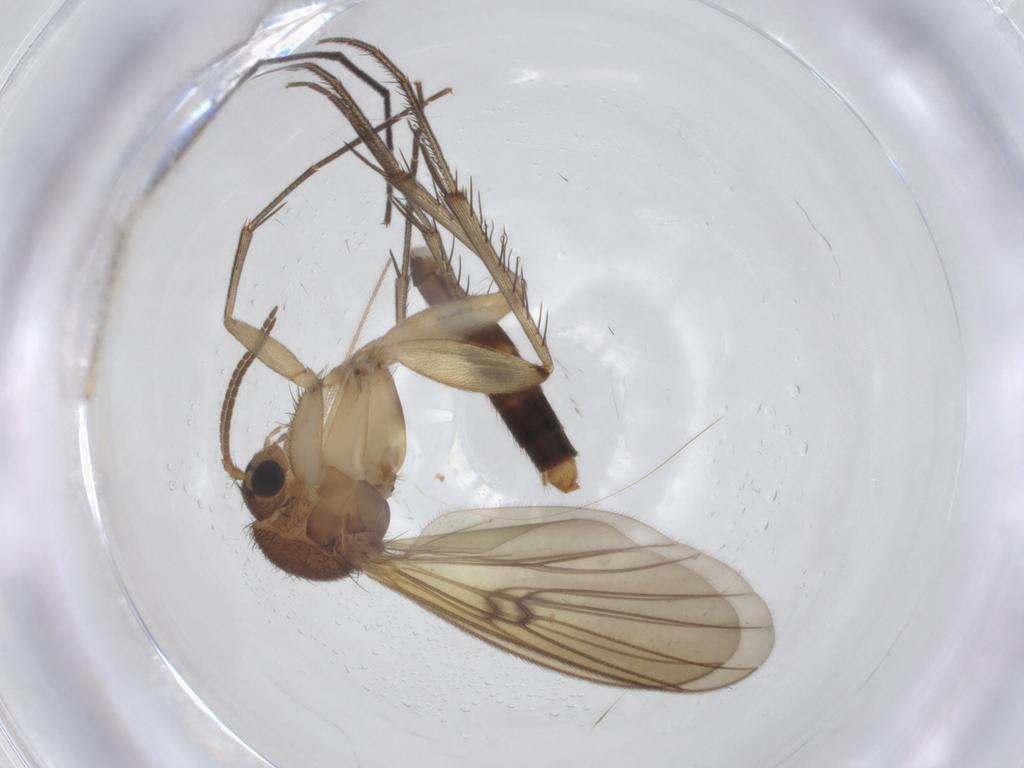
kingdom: Animalia
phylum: Arthropoda
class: Insecta
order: Diptera
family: Mycetophilidae
